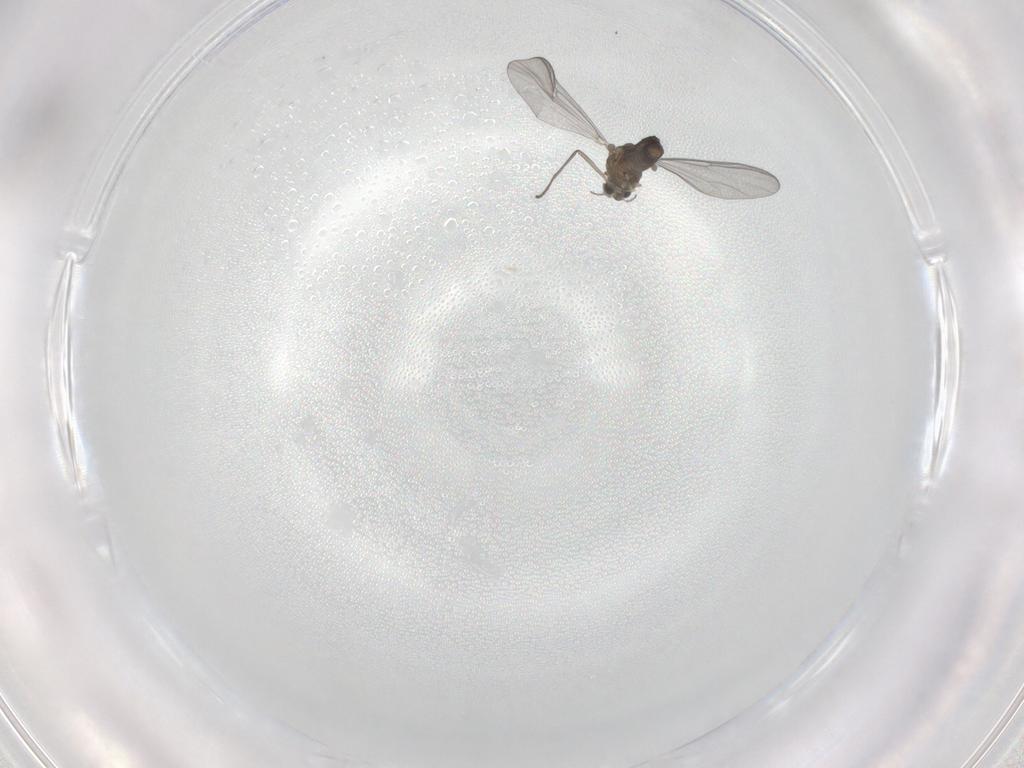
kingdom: Animalia
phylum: Arthropoda
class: Insecta
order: Diptera
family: Chironomidae
